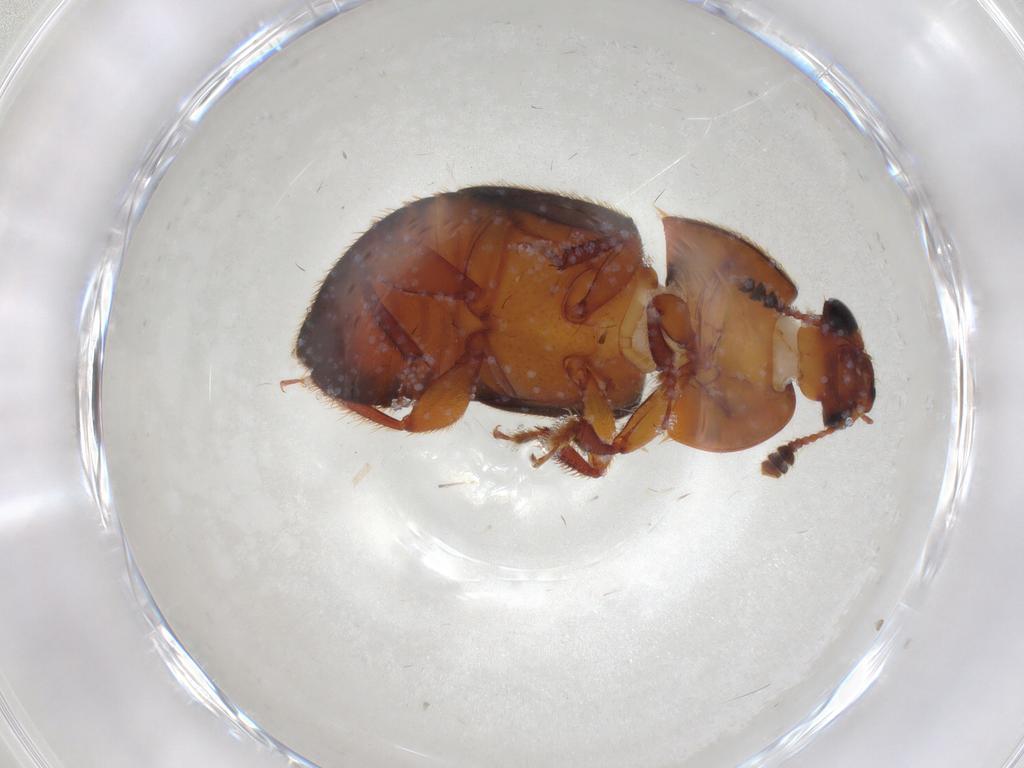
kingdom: Animalia
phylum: Arthropoda
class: Insecta
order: Coleoptera
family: Nitidulidae
